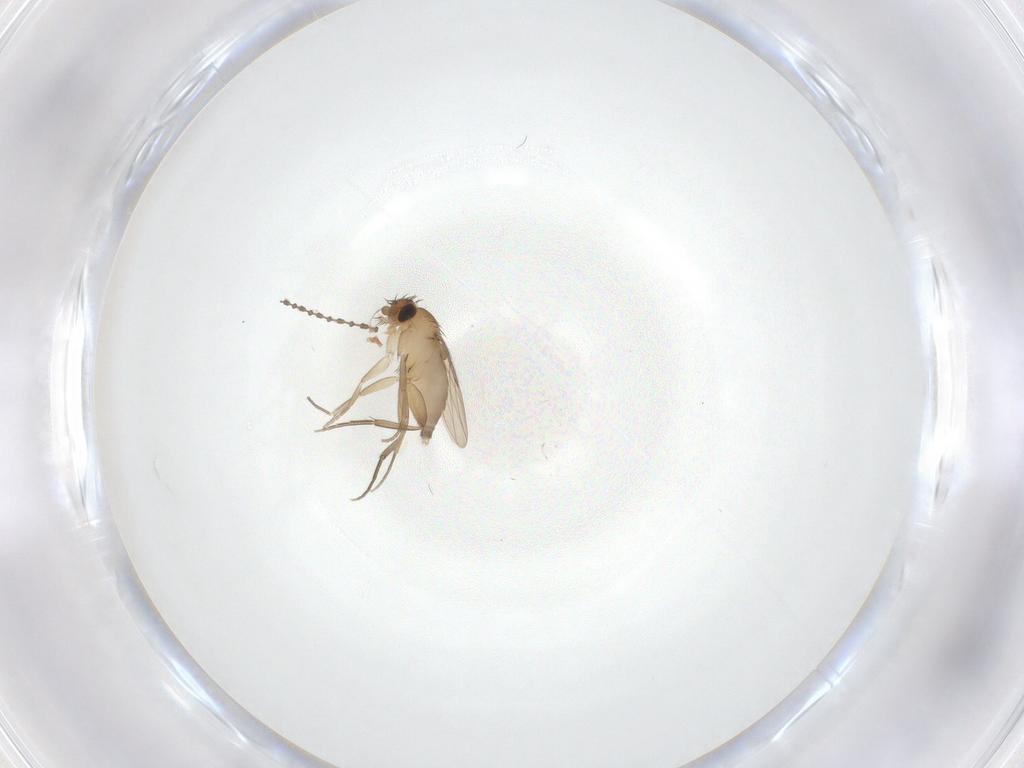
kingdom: Animalia
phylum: Arthropoda
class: Insecta
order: Diptera
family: Phoridae
